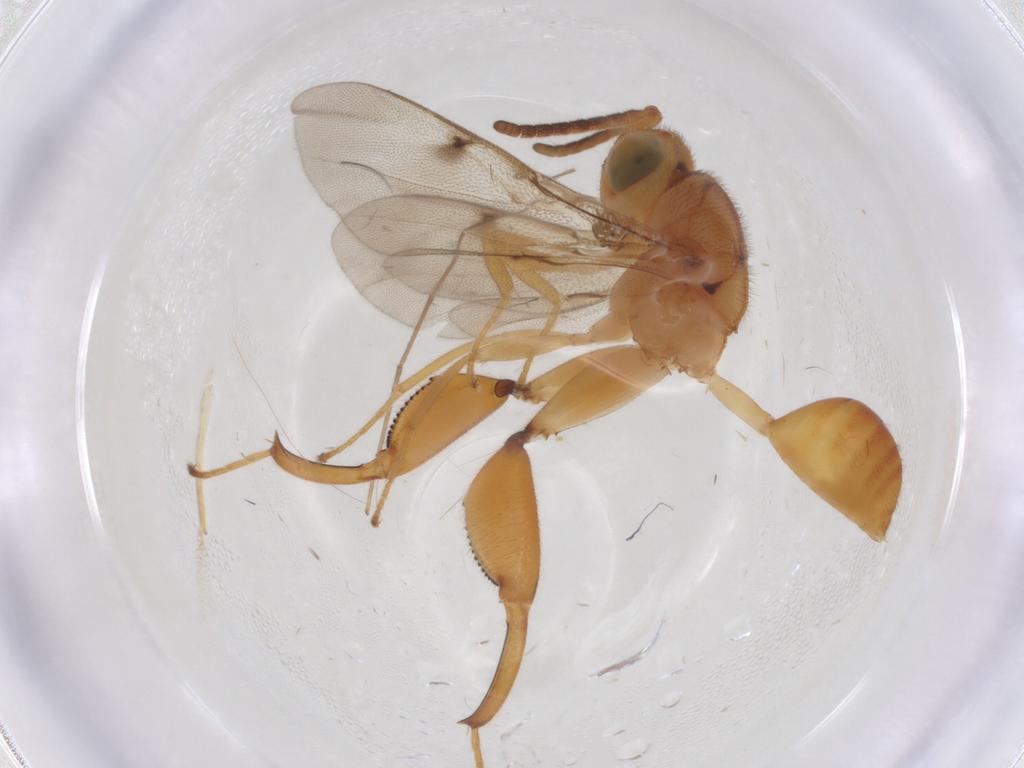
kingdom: Animalia
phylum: Arthropoda
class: Insecta
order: Hymenoptera
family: Chalcididae
